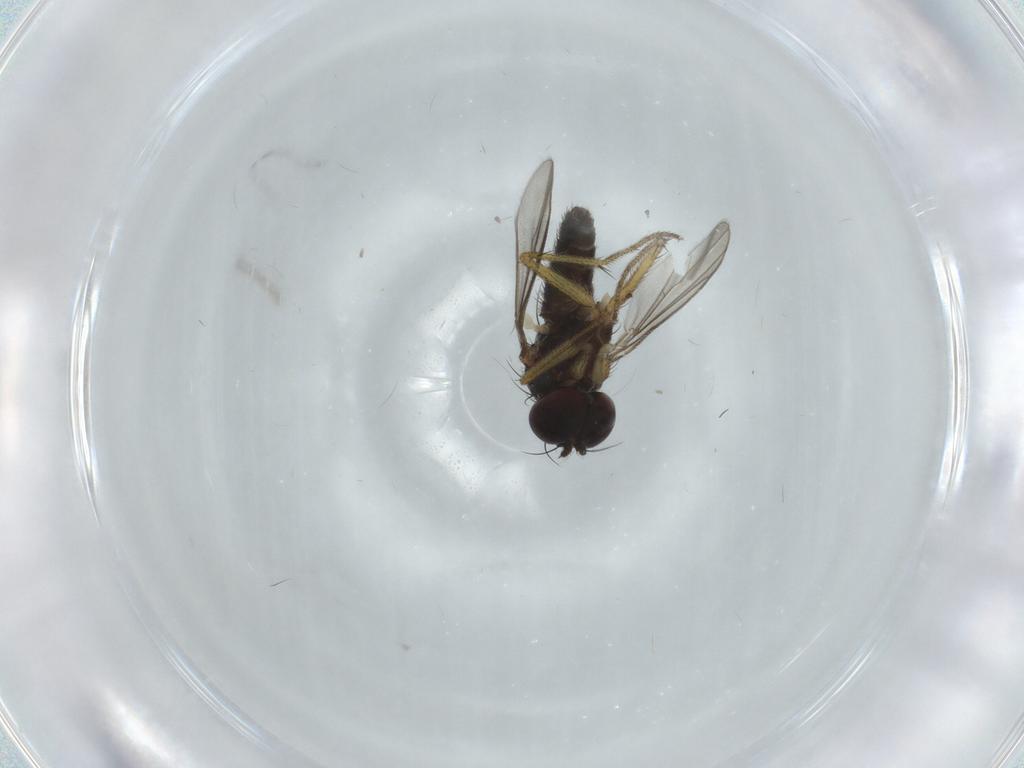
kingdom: Animalia
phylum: Arthropoda
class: Insecta
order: Diptera
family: Dolichopodidae
